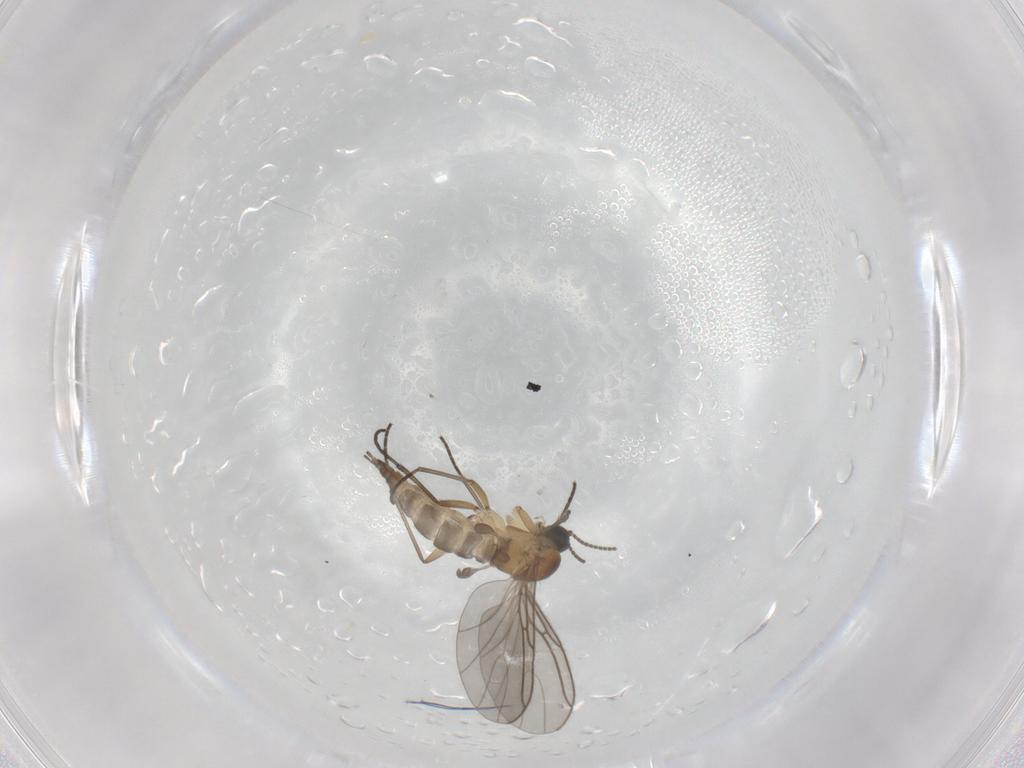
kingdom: Animalia
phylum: Arthropoda
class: Insecta
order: Diptera
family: Sciaridae
